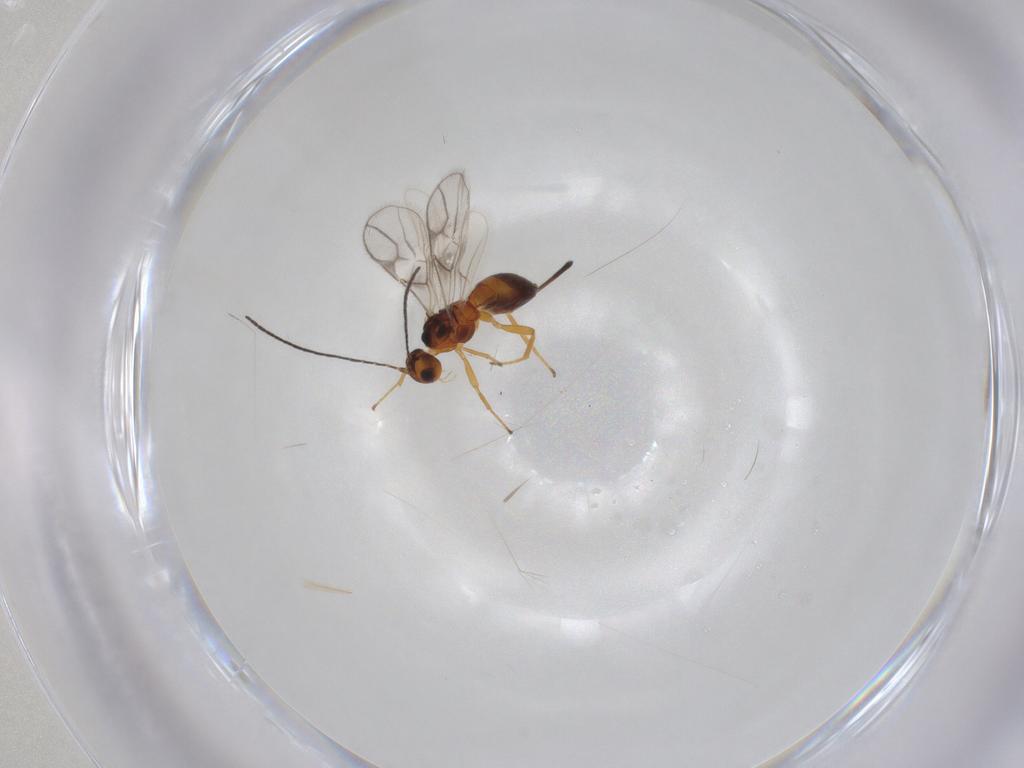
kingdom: Animalia
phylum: Arthropoda
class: Insecta
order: Hymenoptera
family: Braconidae
